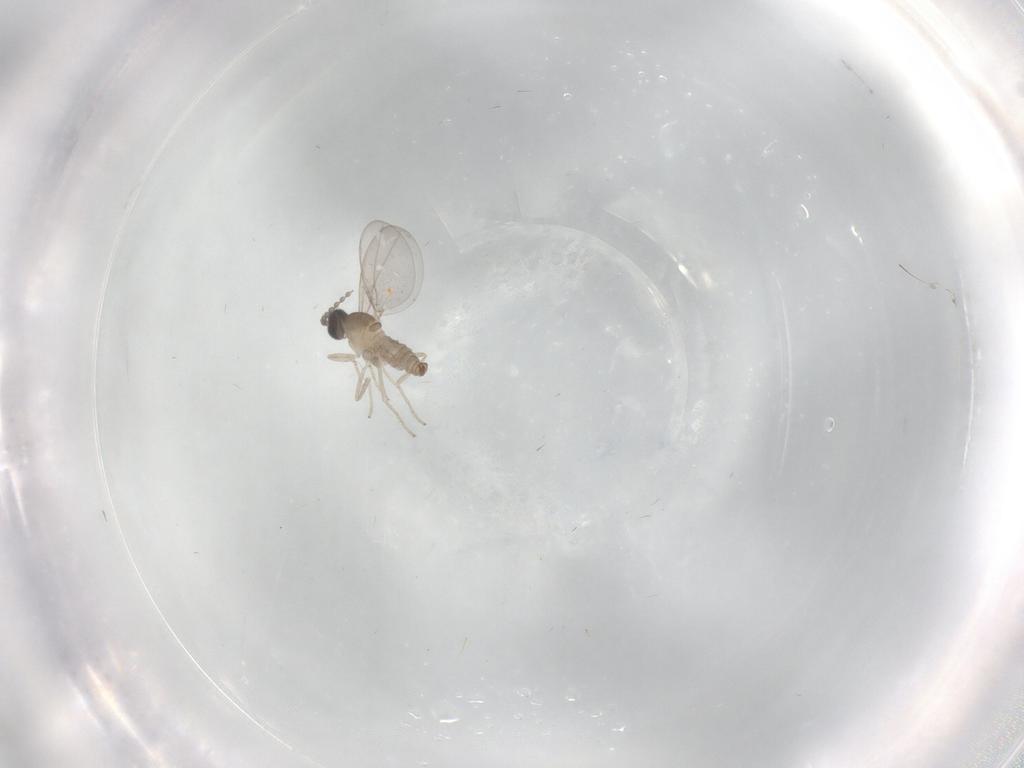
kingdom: Animalia
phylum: Arthropoda
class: Insecta
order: Diptera
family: Chironomidae
